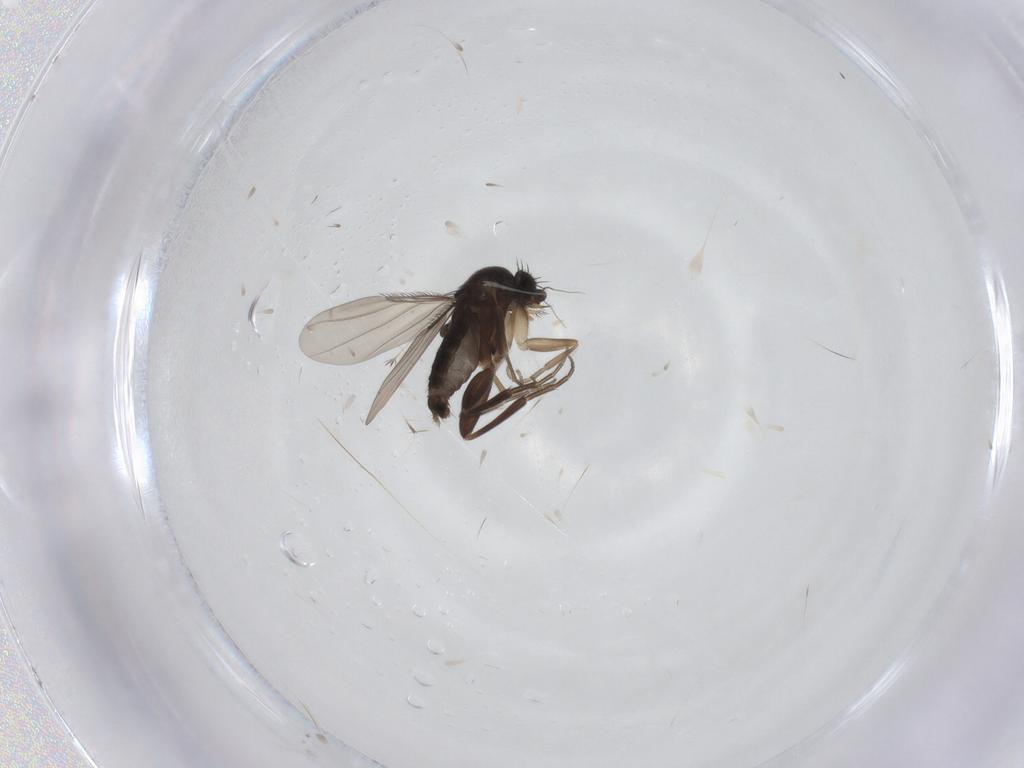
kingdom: Animalia
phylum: Arthropoda
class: Insecta
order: Diptera
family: Phoridae
